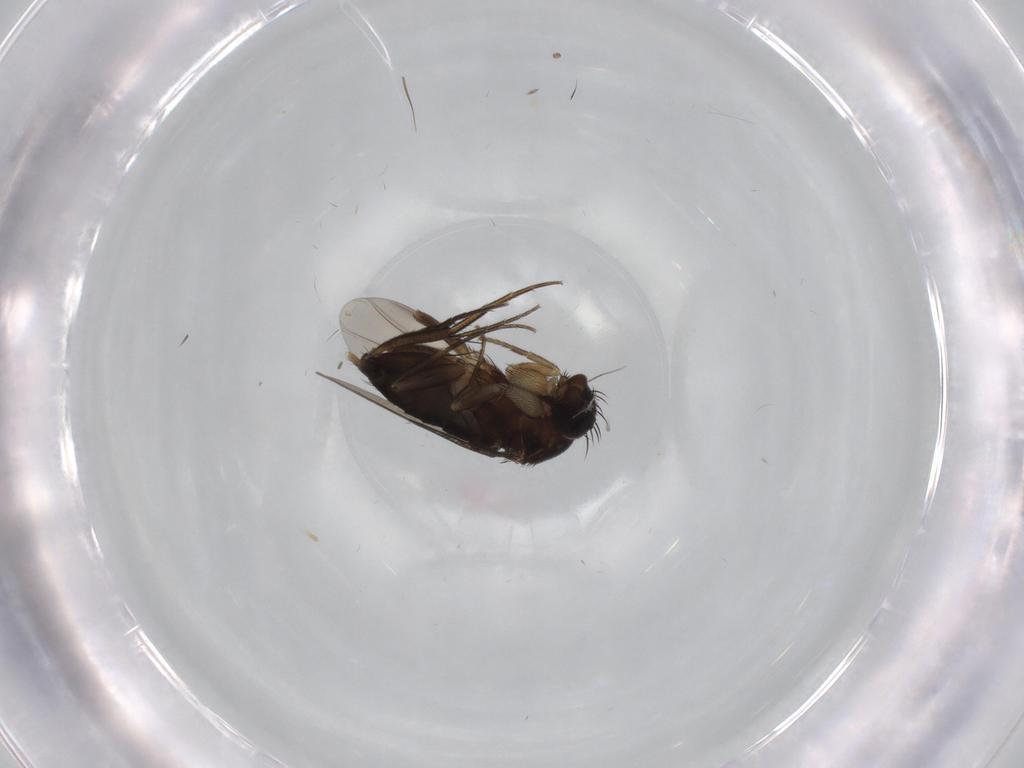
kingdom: Animalia
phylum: Arthropoda
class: Insecta
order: Diptera
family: Phoridae
